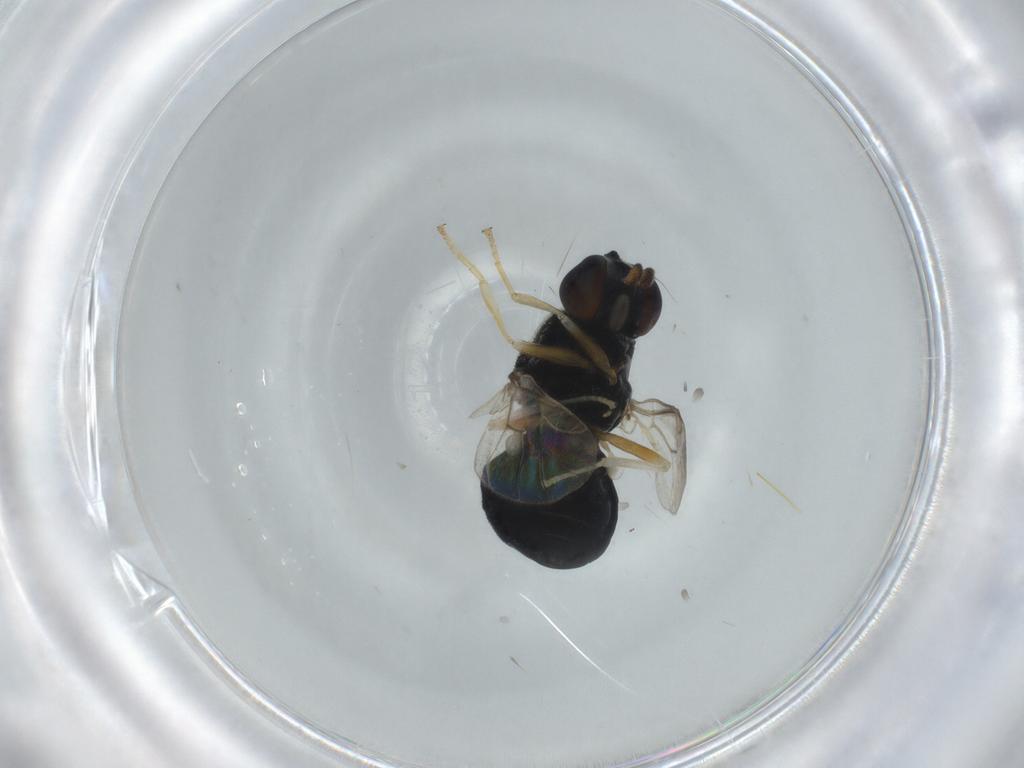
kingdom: Animalia
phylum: Arthropoda
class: Insecta
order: Diptera
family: Stratiomyidae
